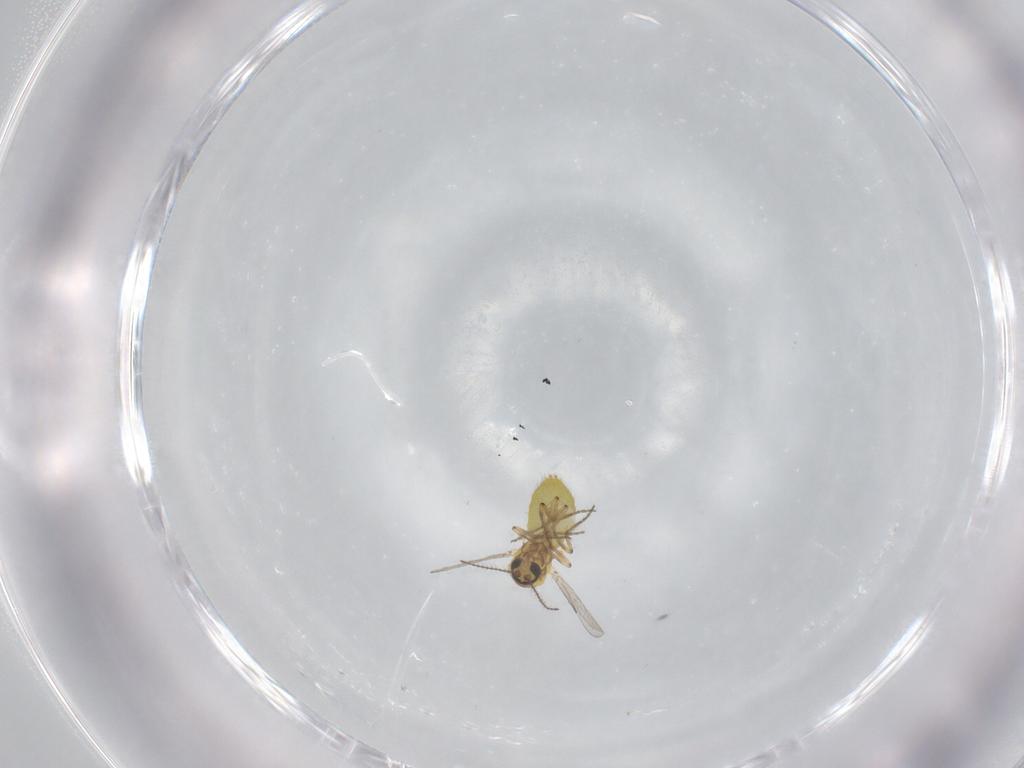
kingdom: Animalia
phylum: Arthropoda
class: Insecta
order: Diptera
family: Ceratopogonidae
